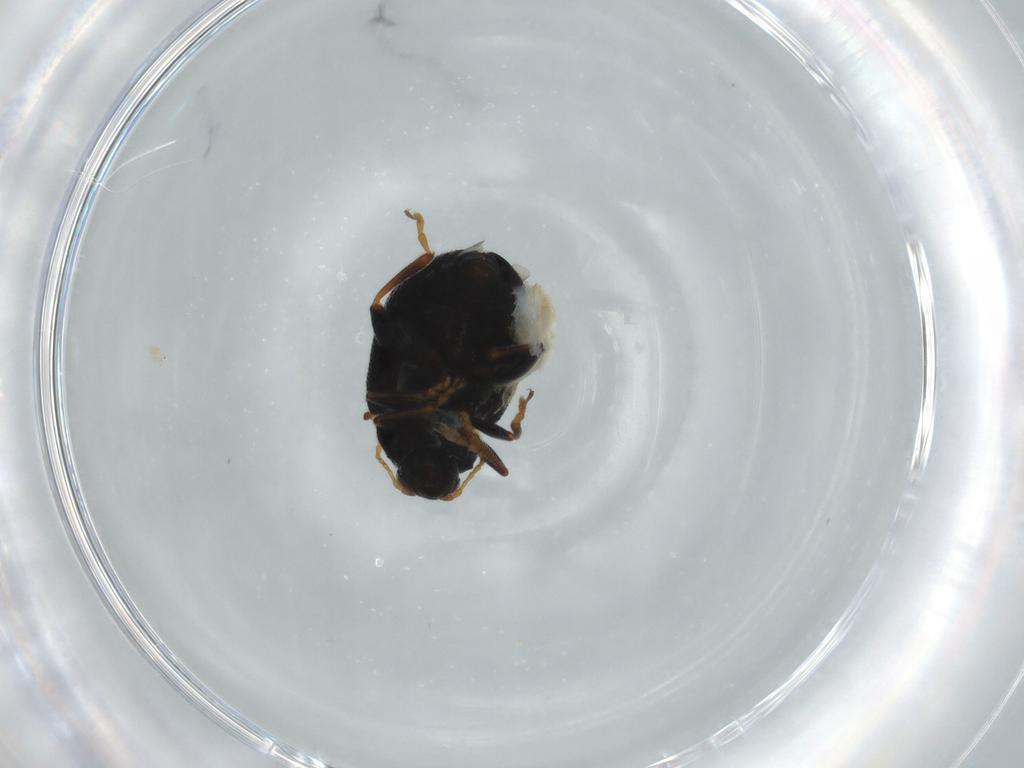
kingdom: Animalia
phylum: Arthropoda
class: Insecta
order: Coleoptera
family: Chrysomelidae
